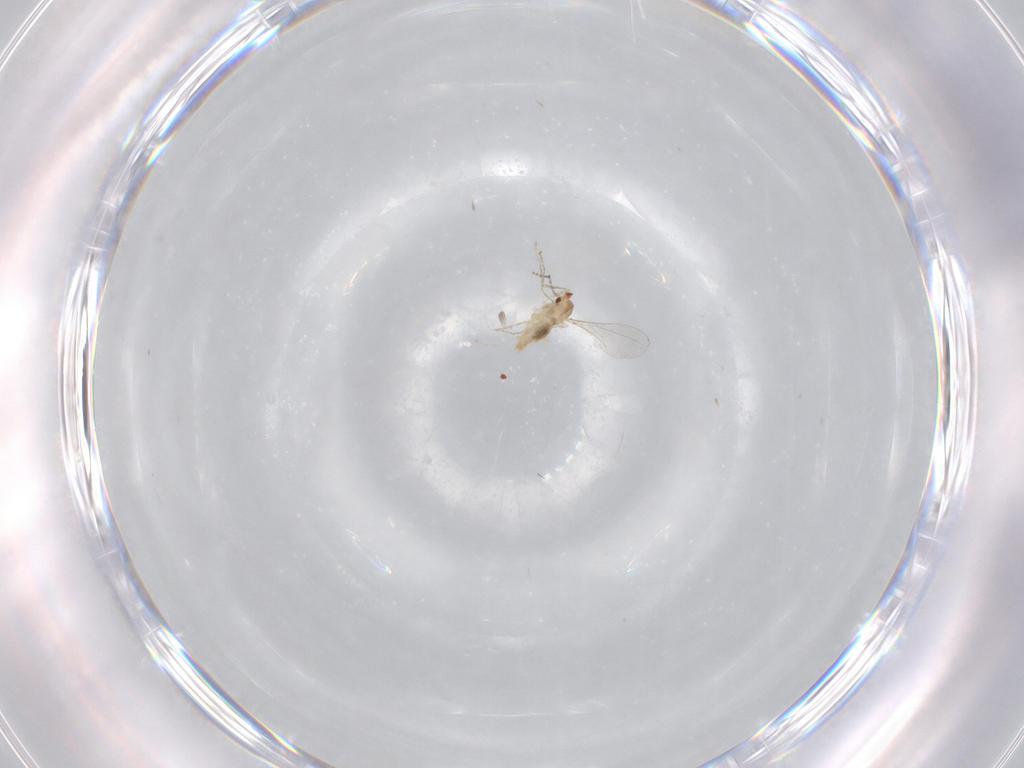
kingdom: Animalia
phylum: Arthropoda
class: Insecta
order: Diptera
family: Cecidomyiidae
